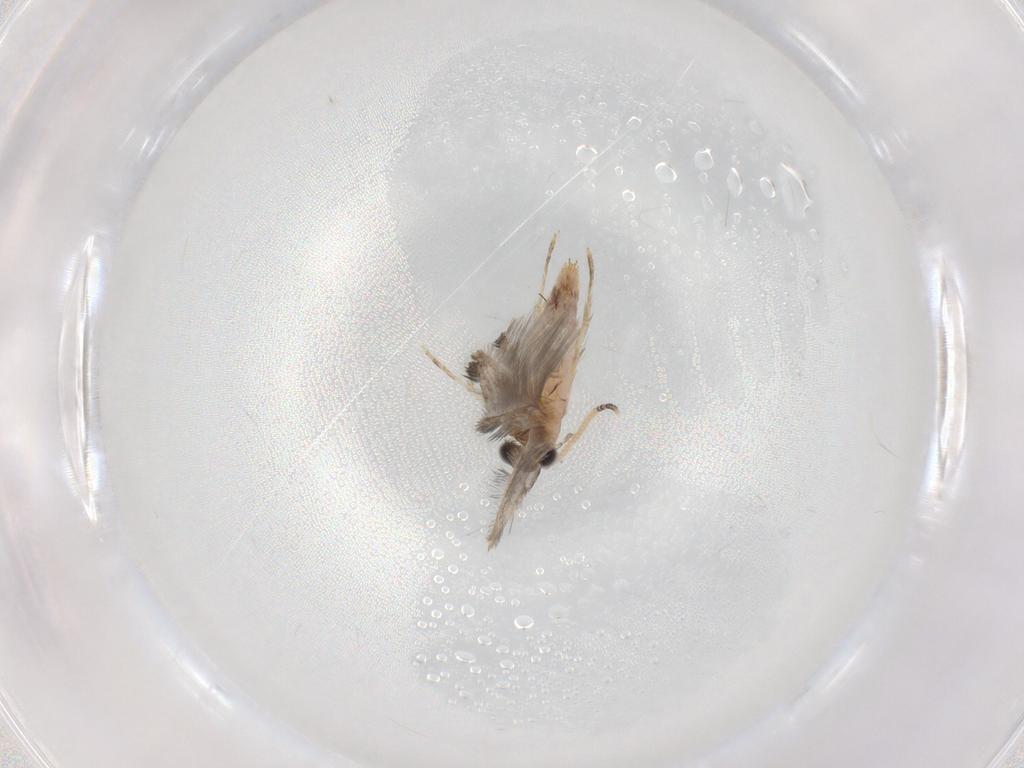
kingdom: Animalia
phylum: Arthropoda
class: Insecta
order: Trichoptera
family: Hydroptilidae
